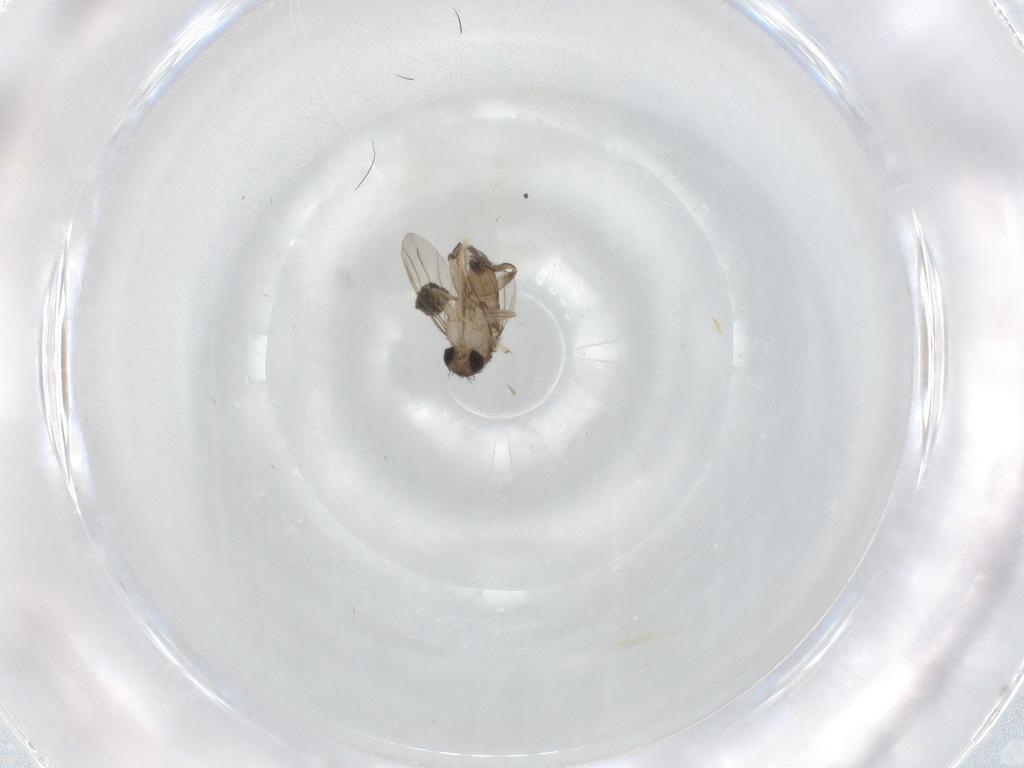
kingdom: Animalia
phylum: Arthropoda
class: Insecta
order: Diptera
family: Phoridae
